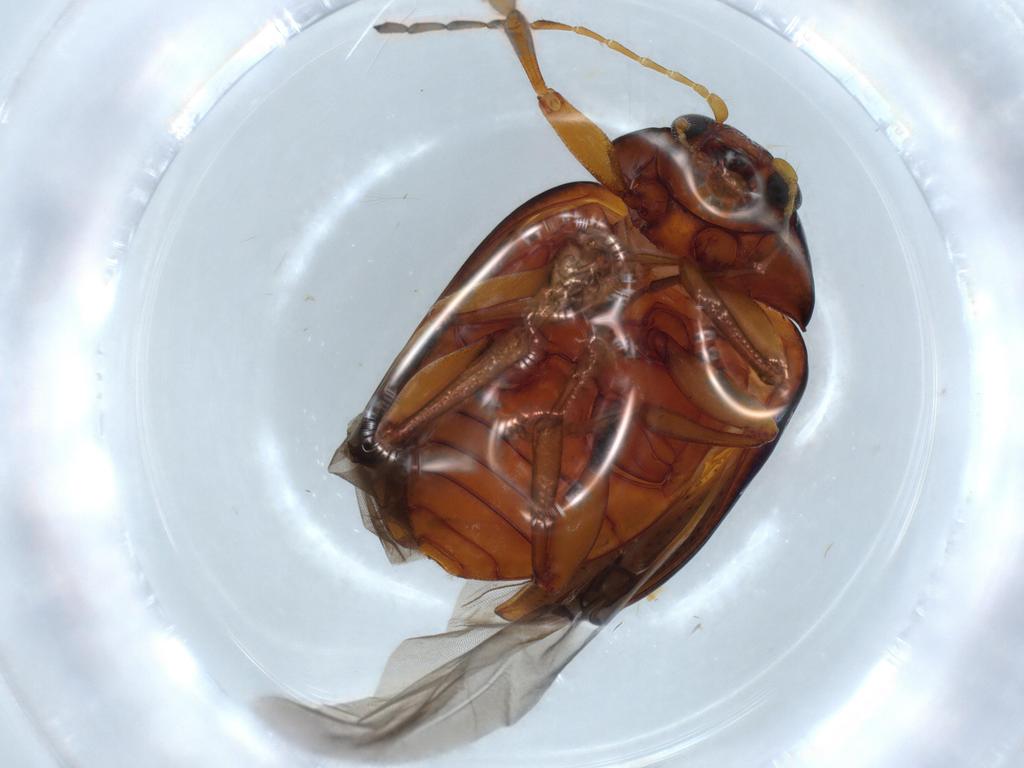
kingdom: Animalia
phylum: Arthropoda
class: Insecta
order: Coleoptera
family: Chrysomelidae
